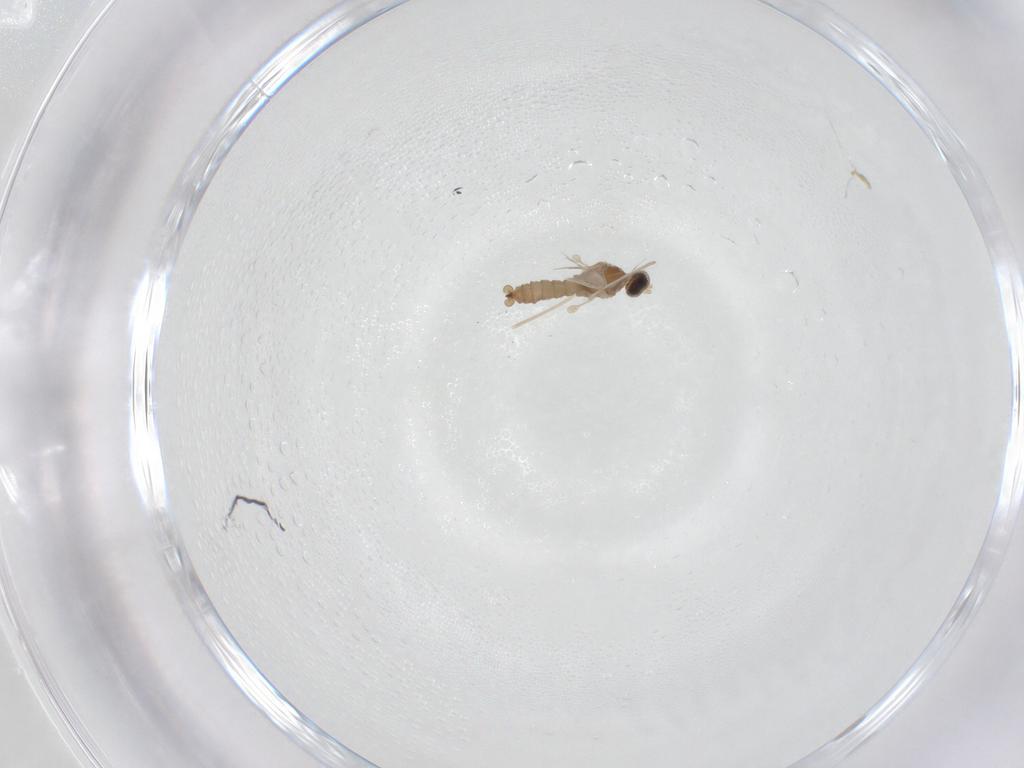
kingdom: Animalia
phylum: Arthropoda
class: Insecta
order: Diptera
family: Cecidomyiidae
